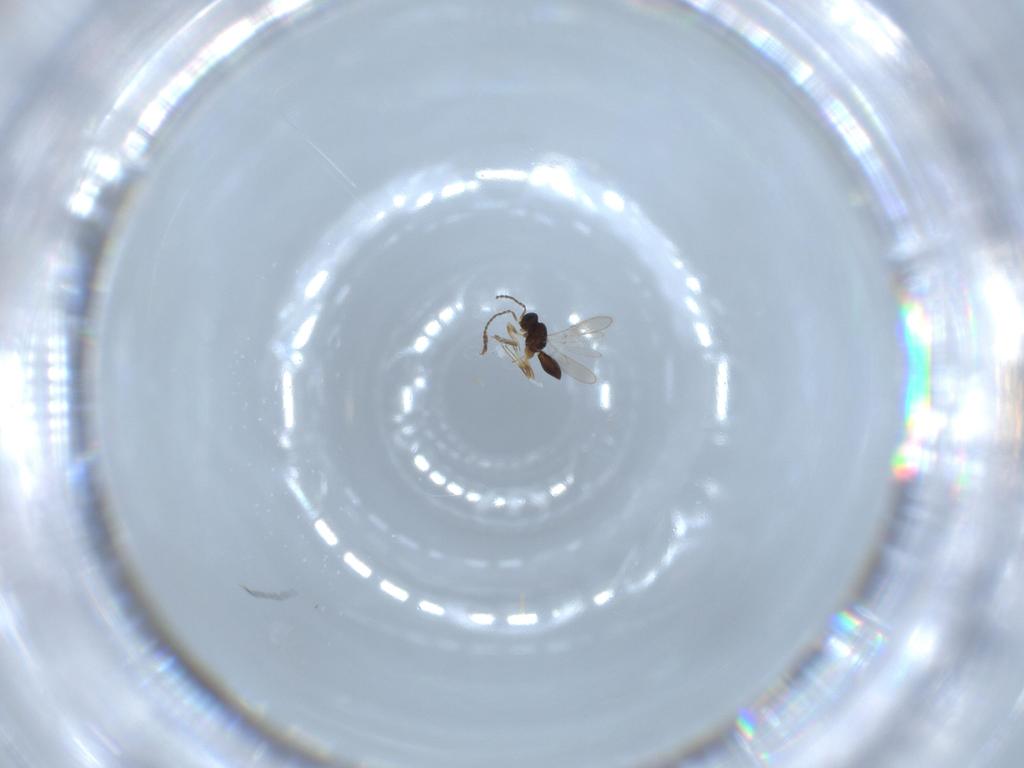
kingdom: Animalia
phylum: Arthropoda
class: Insecta
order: Hymenoptera
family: Scelionidae
